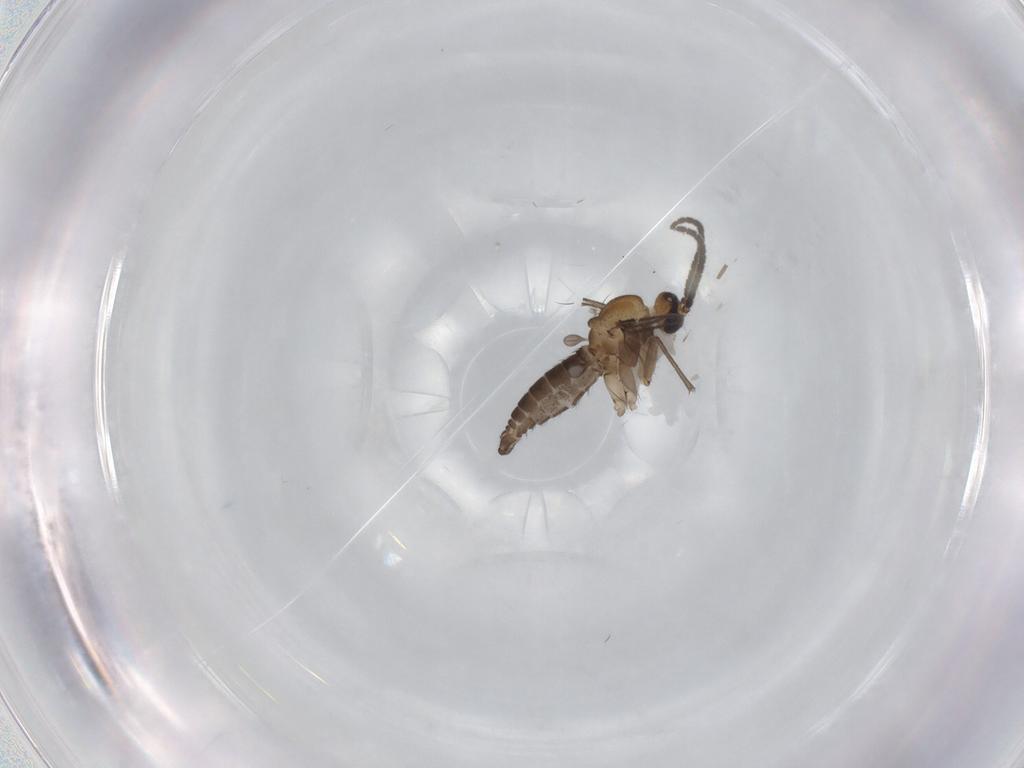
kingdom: Animalia
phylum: Arthropoda
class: Insecta
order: Diptera
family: Sciaridae
